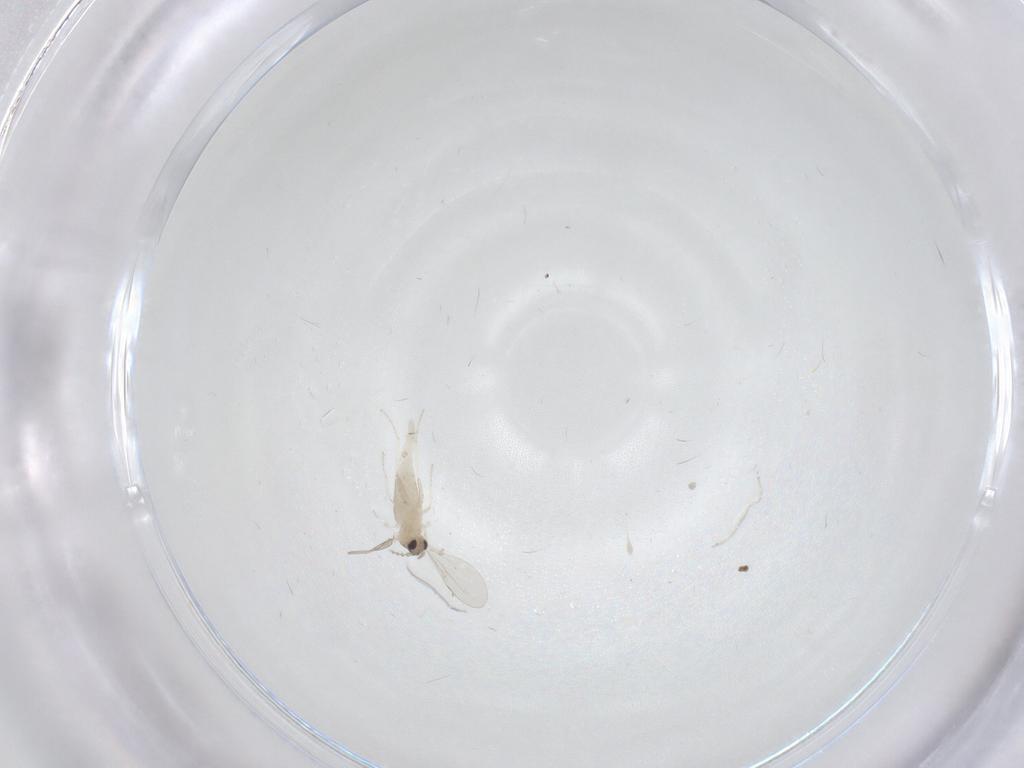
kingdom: Animalia
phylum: Arthropoda
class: Insecta
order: Diptera
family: Cecidomyiidae
